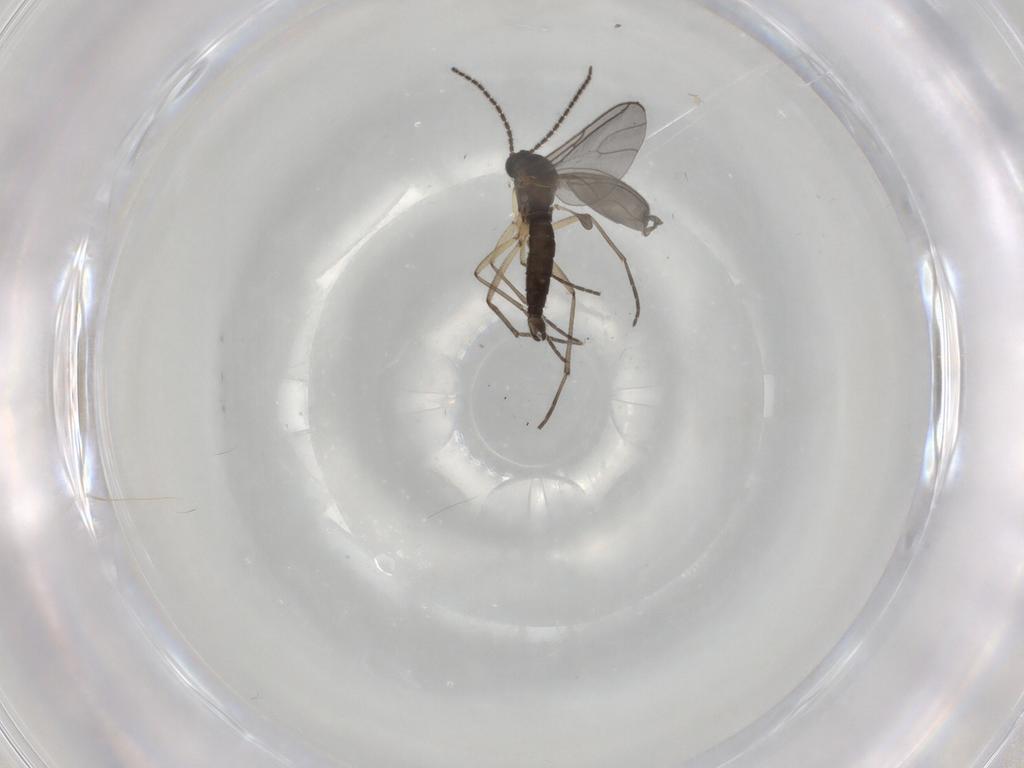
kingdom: Animalia
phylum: Arthropoda
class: Insecta
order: Diptera
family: Sciaridae
